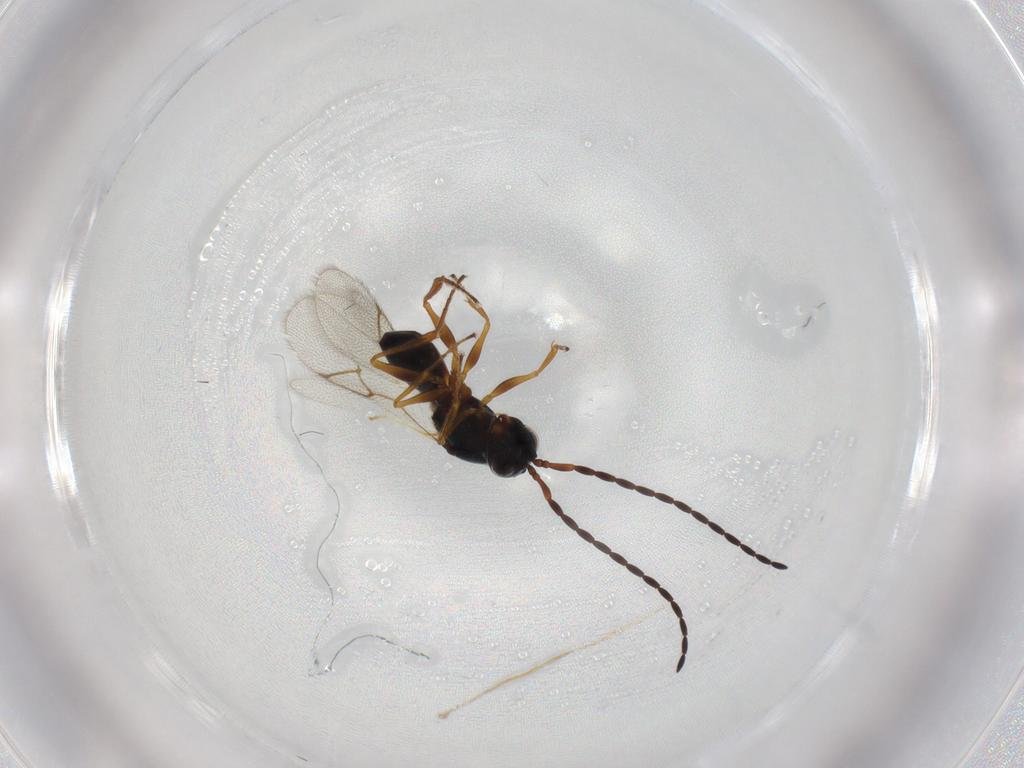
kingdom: Animalia
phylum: Arthropoda
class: Insecta
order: Hymenoptera
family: Figitidae
